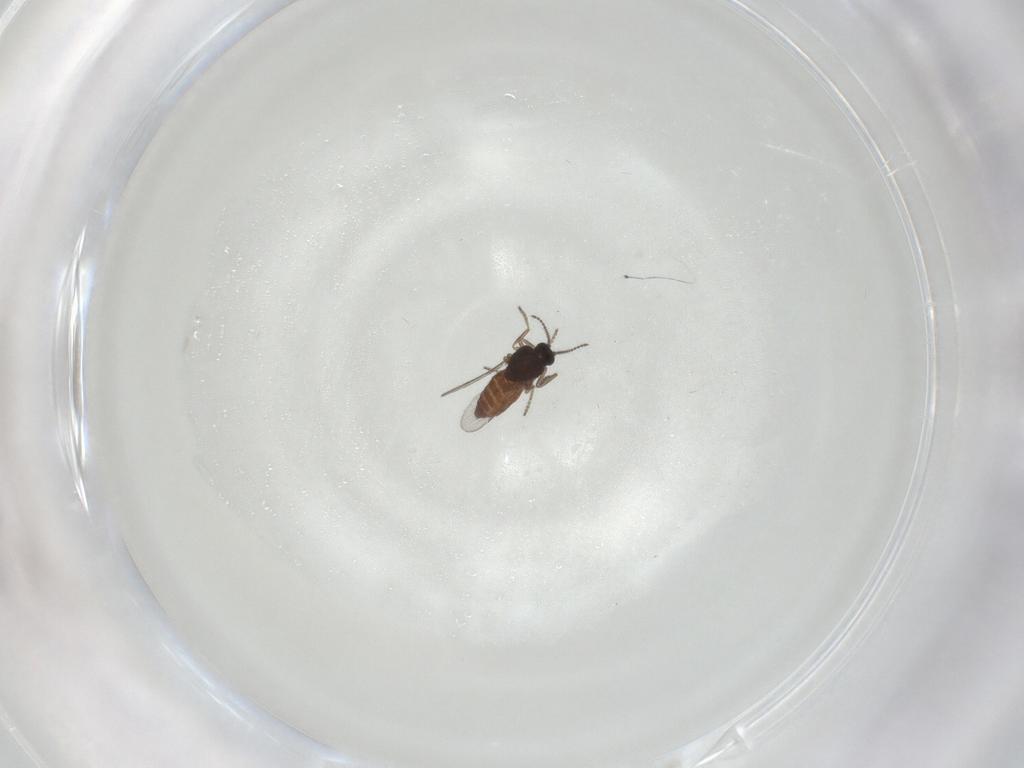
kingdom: Animalia
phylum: Arthropoda
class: Insecta
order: Diptera
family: Ceratopogonidae
